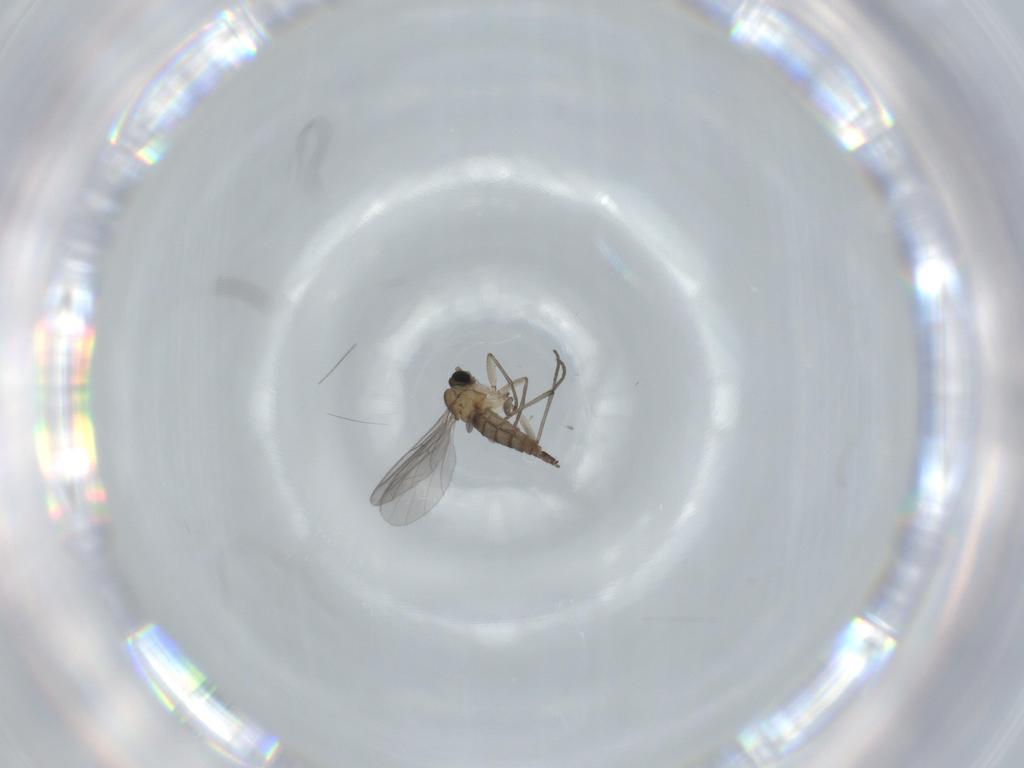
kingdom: Animalia
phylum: Arthropoda
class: Insecta
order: Diptera
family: Sciaridae
